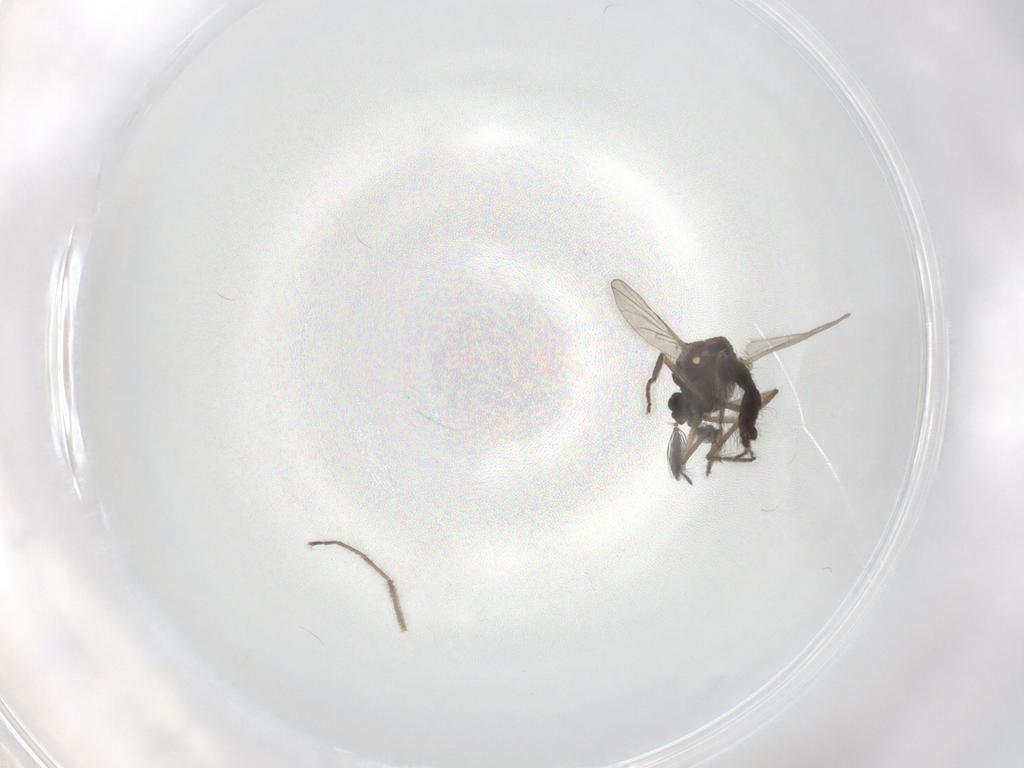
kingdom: Animalia
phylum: Arthropoda
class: Insecta
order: Diptera
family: Ceratopogonidae
